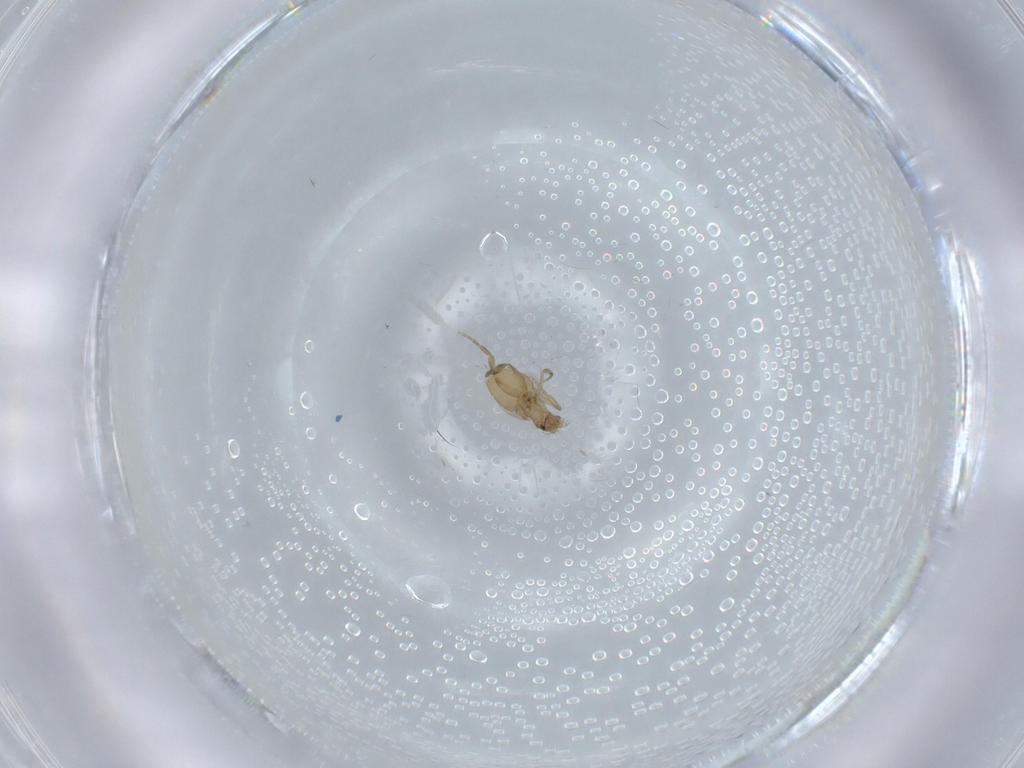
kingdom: Animalia
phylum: Arthropoda
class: Insecta
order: Diptera
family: Phoridae
